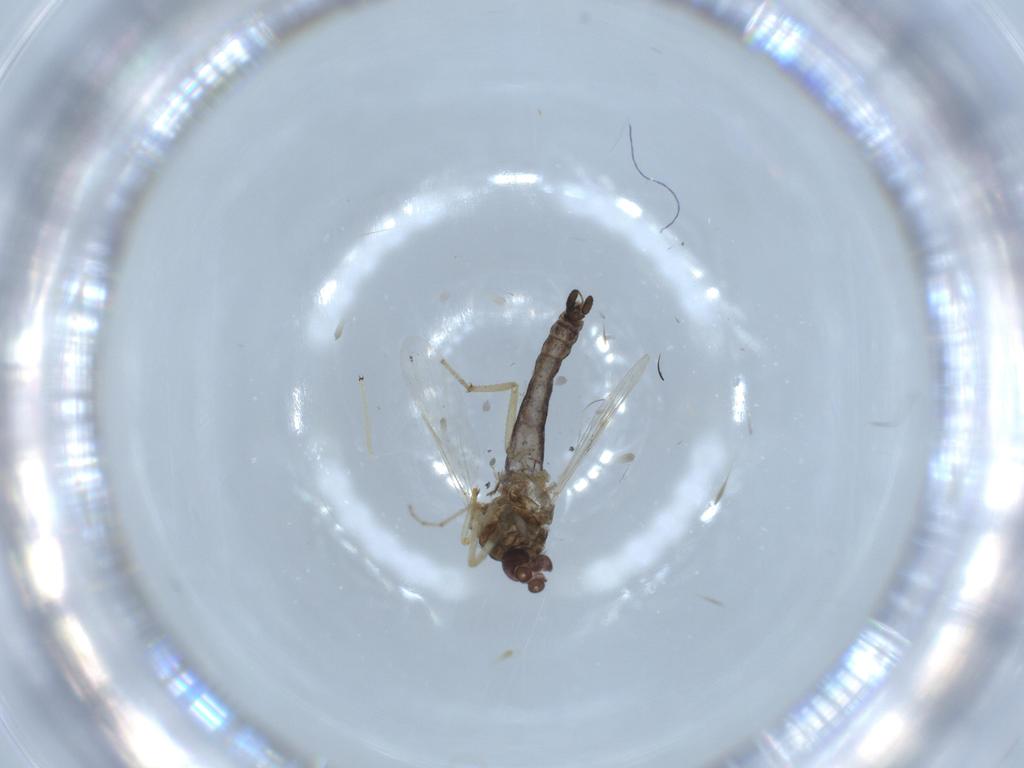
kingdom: Animalia
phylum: Arthropoda
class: Insecta
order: Diptera
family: Ceratopogonidae
